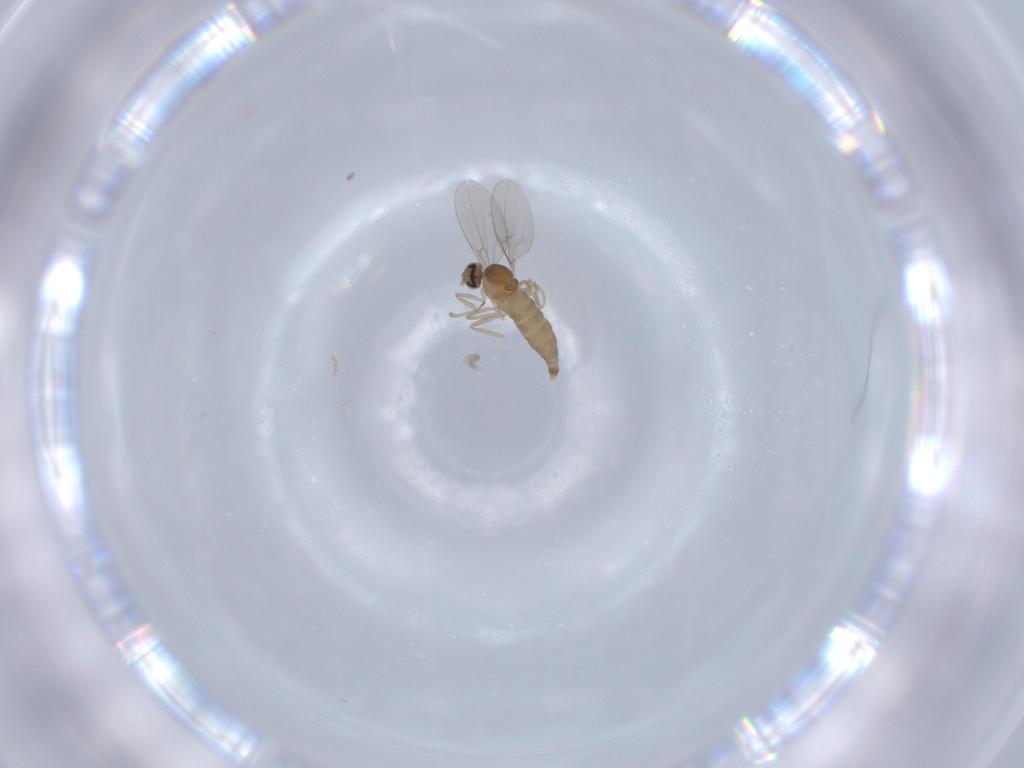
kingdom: Animalia
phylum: Arthropoda
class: Insecta
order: Diptera
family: Cecidomyiidae
